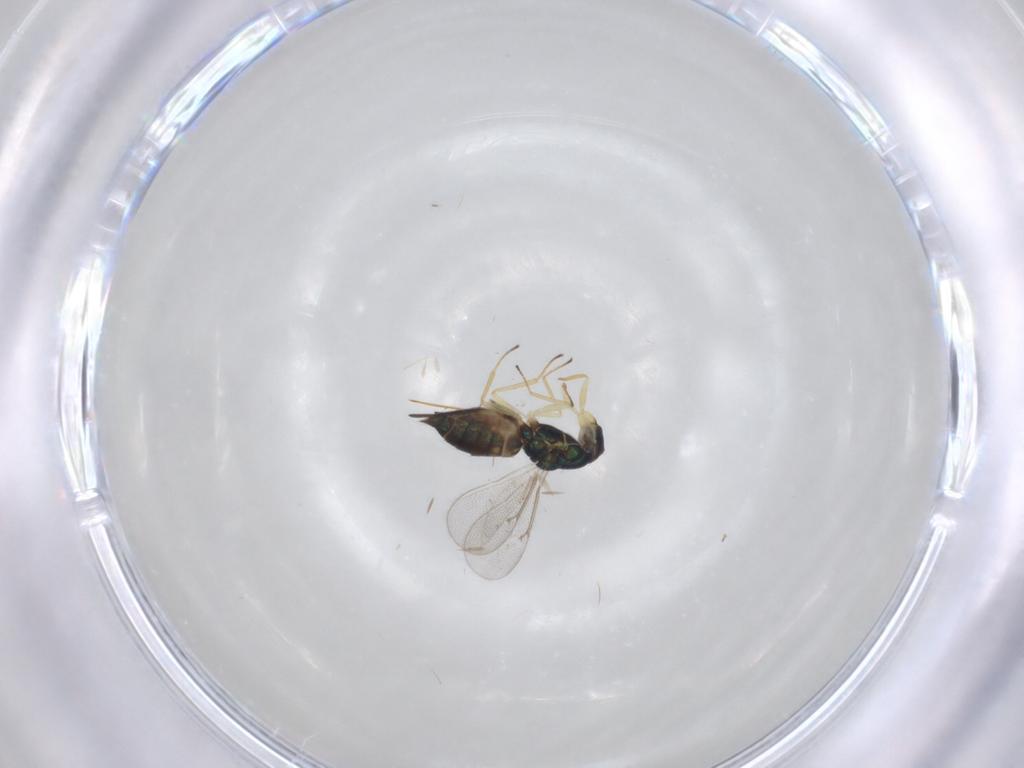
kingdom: Animalia
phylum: Arthropoda
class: Insecta
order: Hymenoptera
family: Eulophidae
